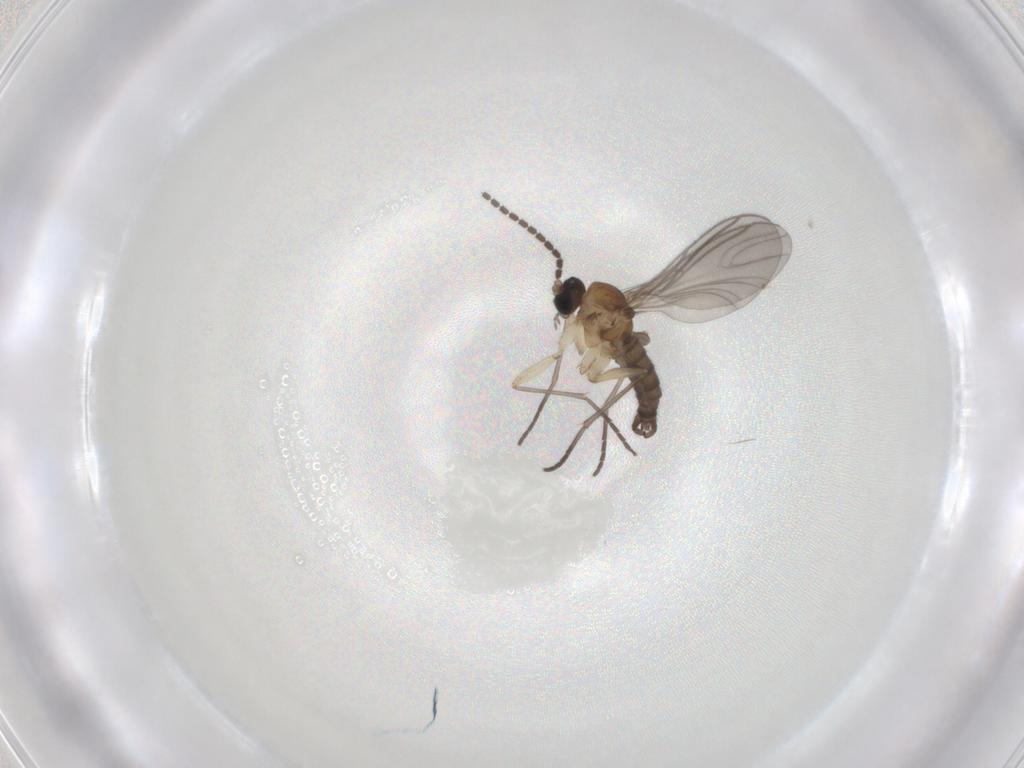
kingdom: Animalia
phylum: Arthropoda
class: Insecta
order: Diptera
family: Sciaridae
